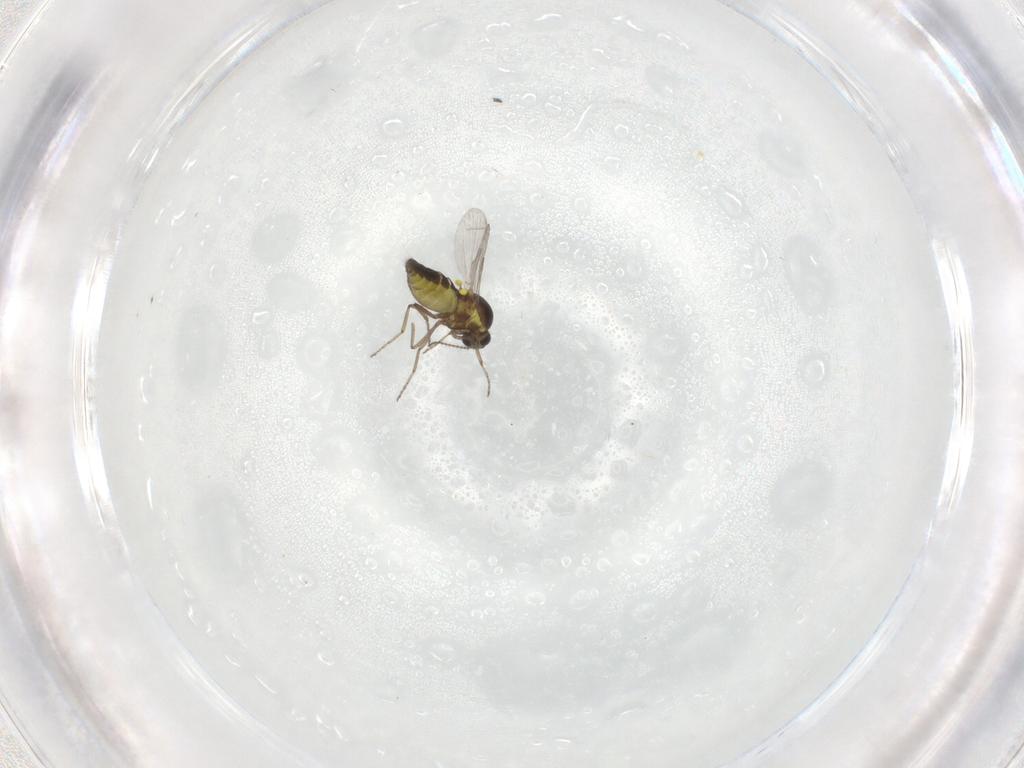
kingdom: Animalia
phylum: Arthropoda
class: Insecta
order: Diptera
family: Ceratopogonidae
